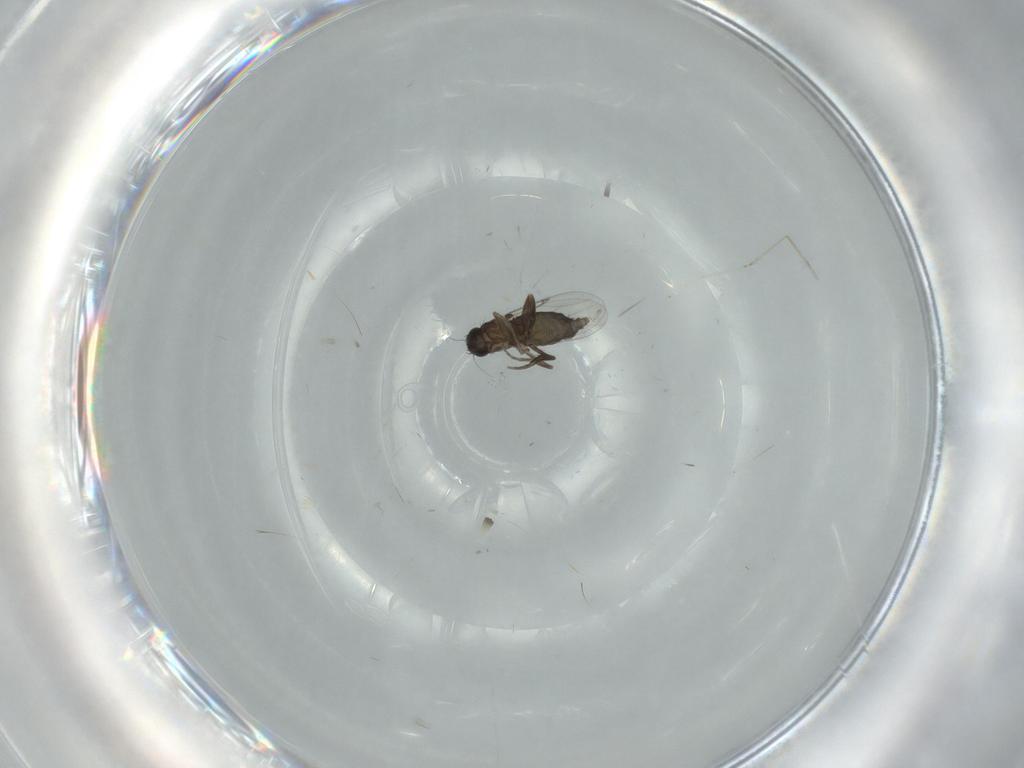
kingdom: Animalia
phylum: Arthropoda
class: Insecta
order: Diptera
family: Phoridae
